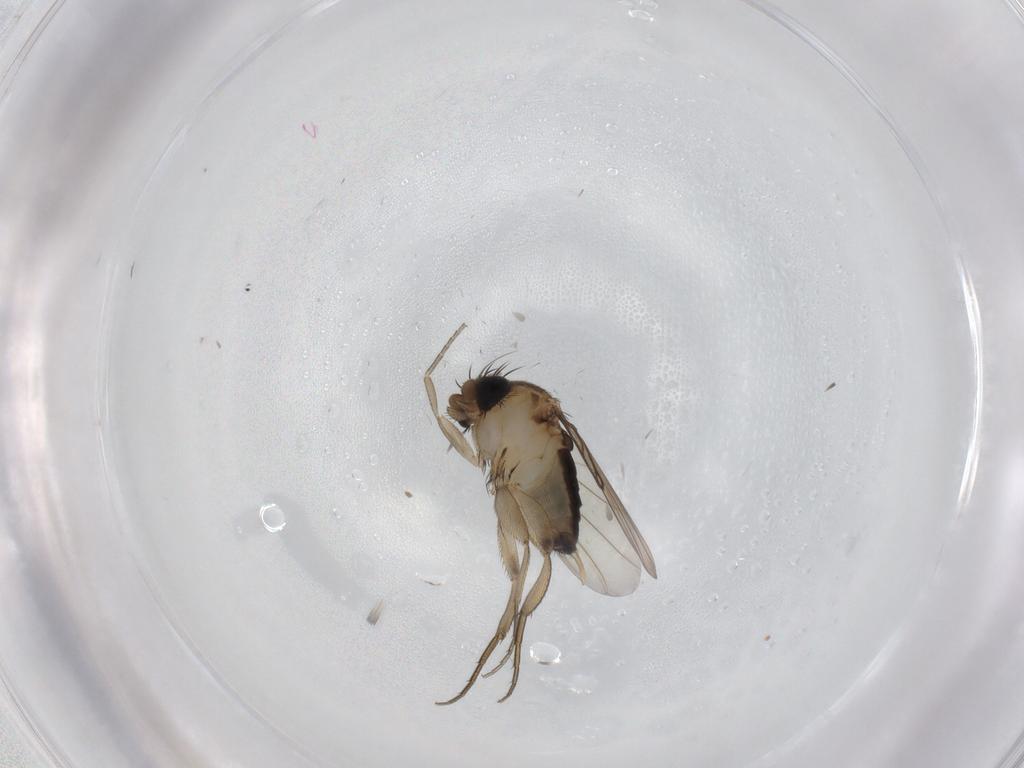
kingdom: Animalia
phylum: Arthropoda
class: Insecta
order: Diptera
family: Phoridae
